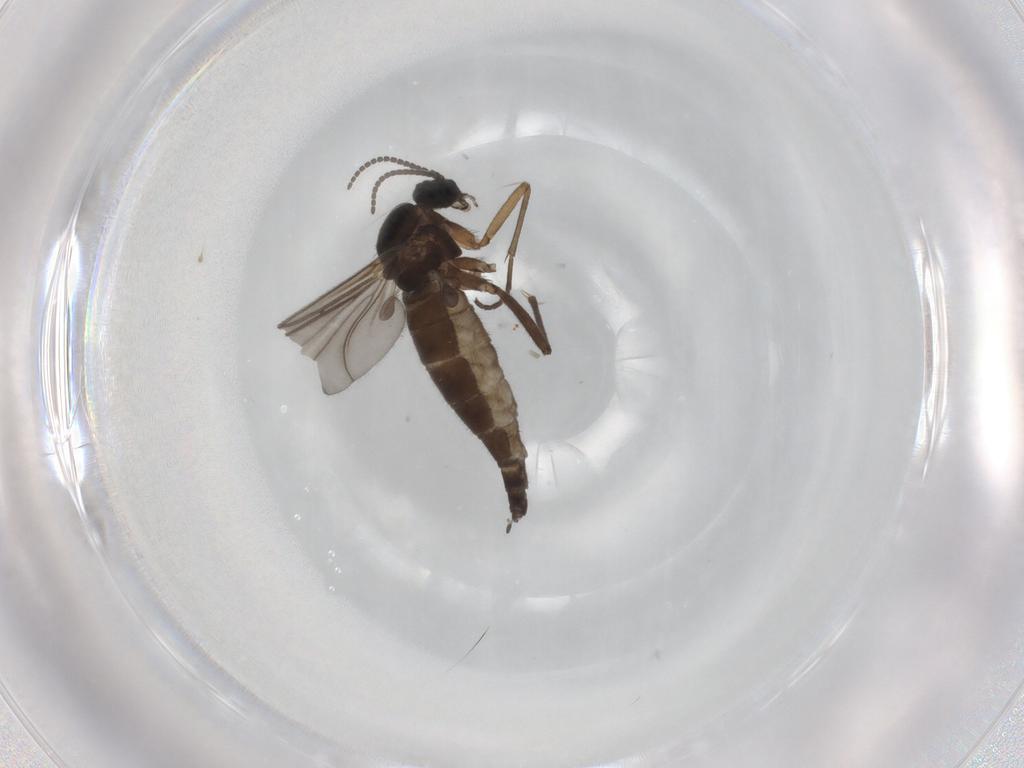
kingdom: Animalia
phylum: Arthropoda
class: Insecta
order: Diptera
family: Sciaridae
